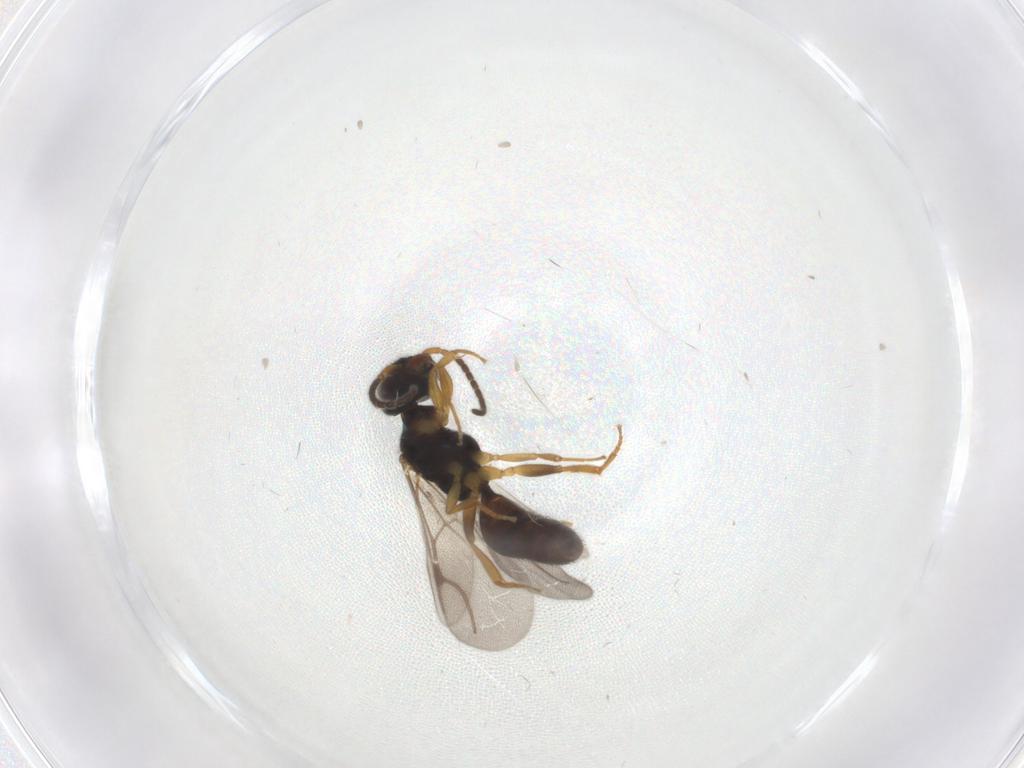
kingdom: Animalia
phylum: Arthropoda
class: Insecta
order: Hymenoptera
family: Bethylidae
